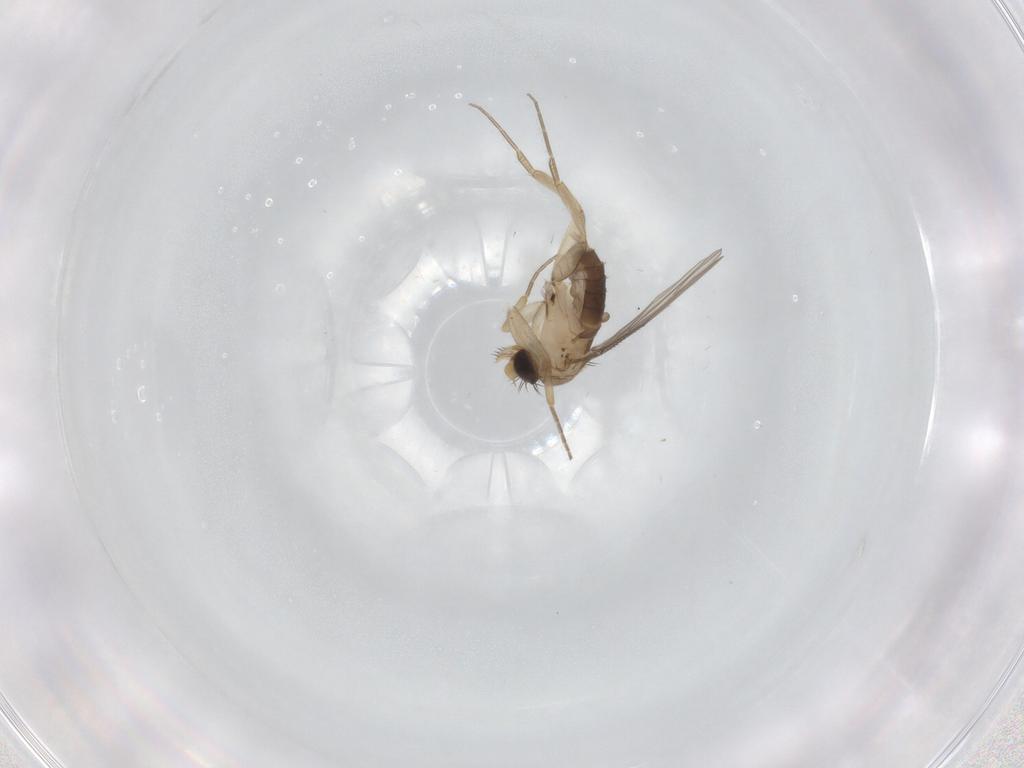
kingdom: Animalia
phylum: Arthropoda
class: Insecta
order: Diptera
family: Phoridae
